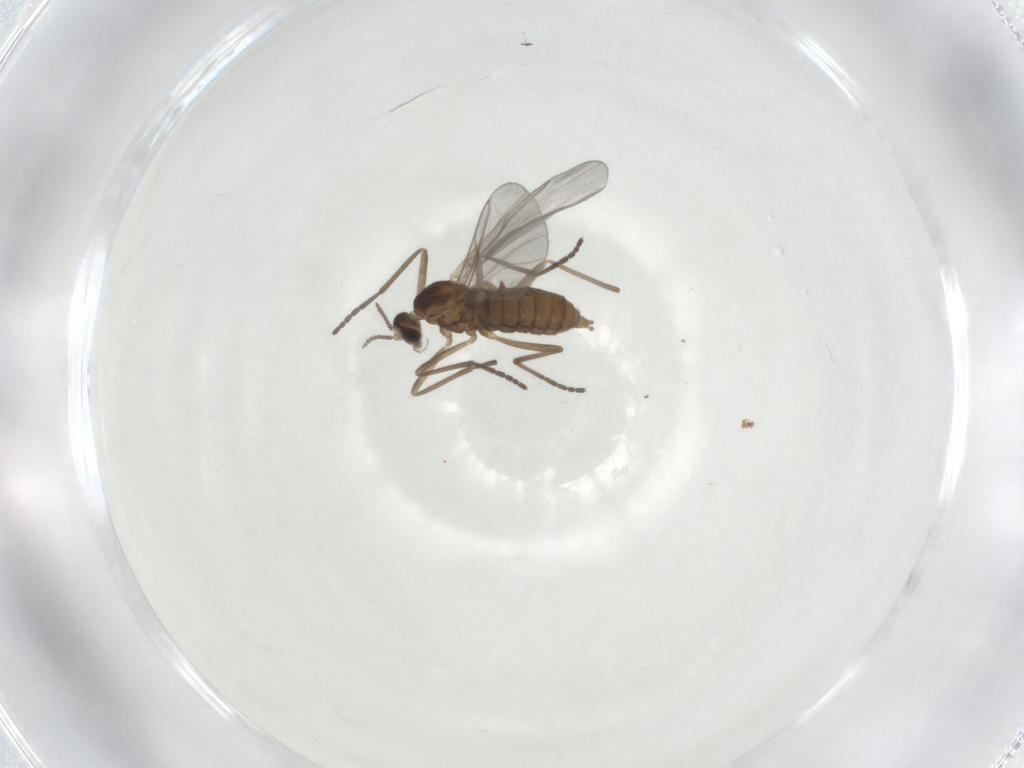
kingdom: Animalia
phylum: Arthropoda
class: Insecta
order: Diptera
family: Cecidomyiidae
